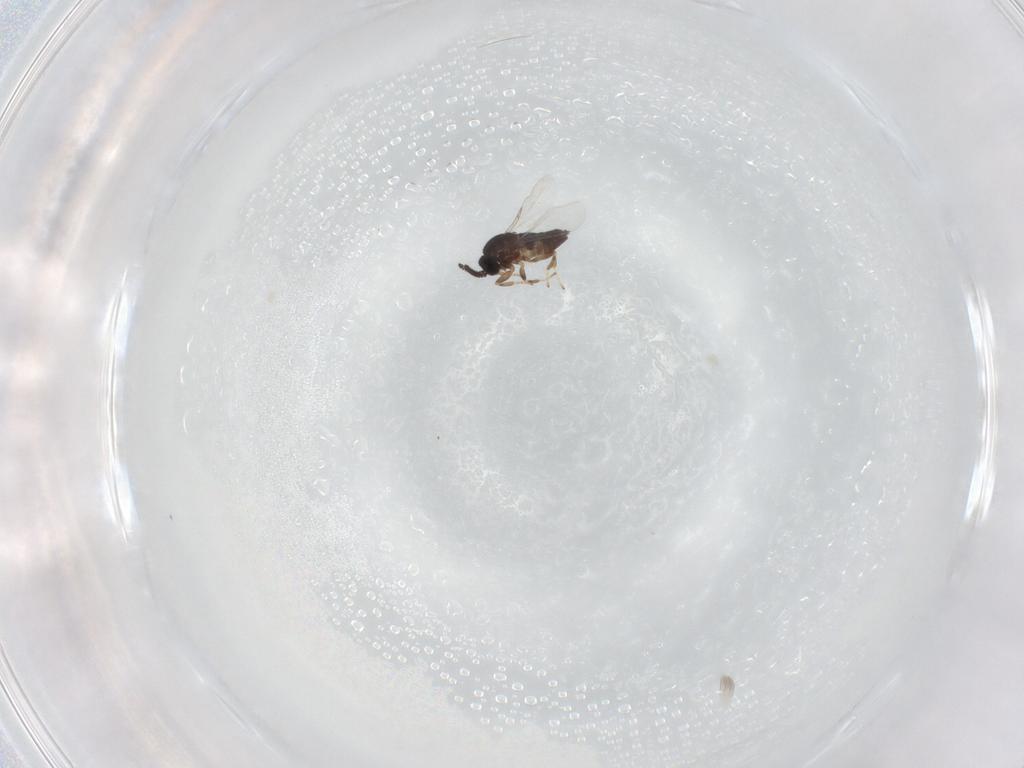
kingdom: Animalia
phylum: Arthropoda
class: Insecta
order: Diptera
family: Scatopsidae
